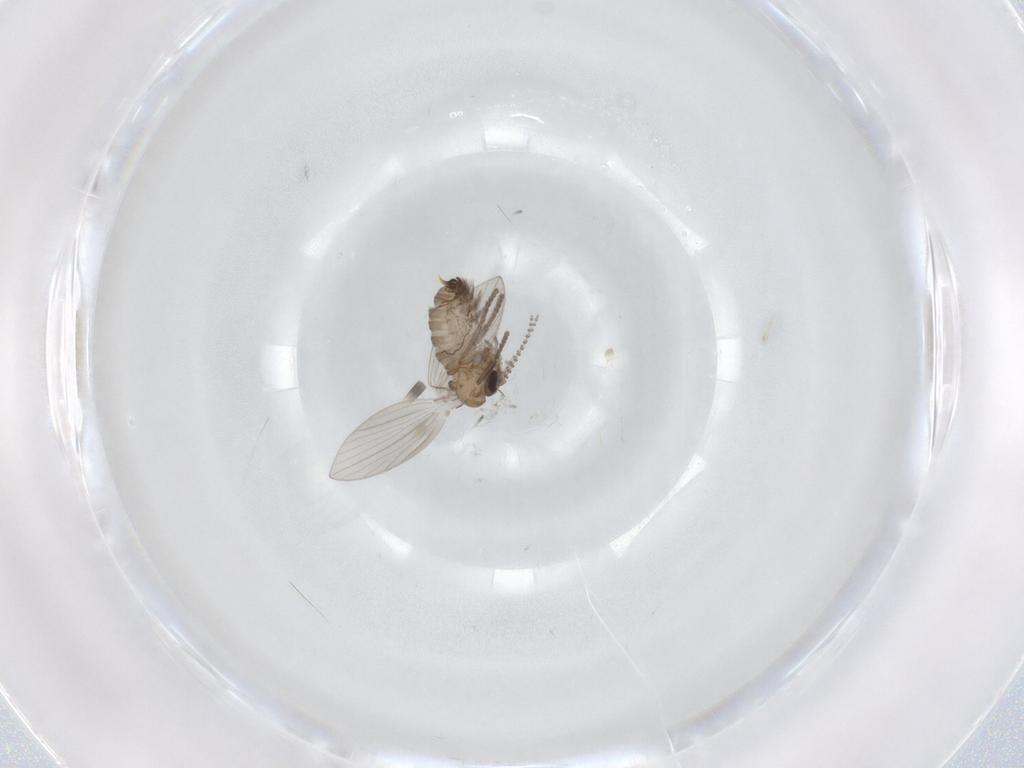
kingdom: Animalia
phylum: Arthropoda
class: Insecta
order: Diptera
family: Psychodidae
